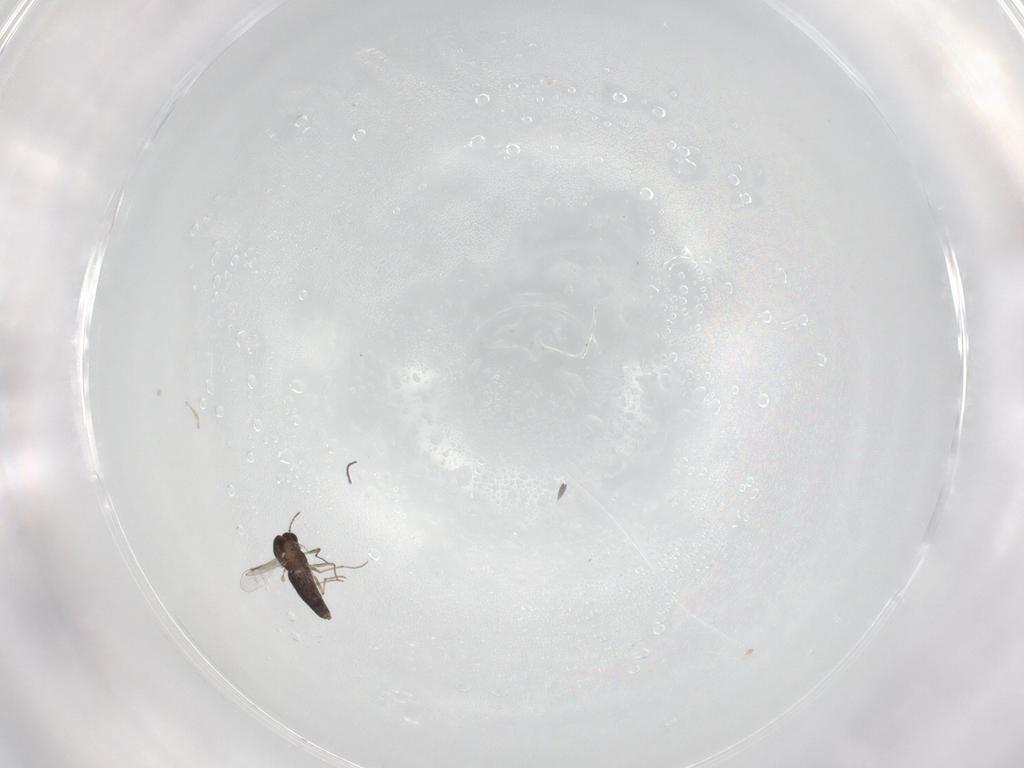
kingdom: Animalia
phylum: Arthropoda
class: Insecta
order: Diptera
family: Chironomidae
